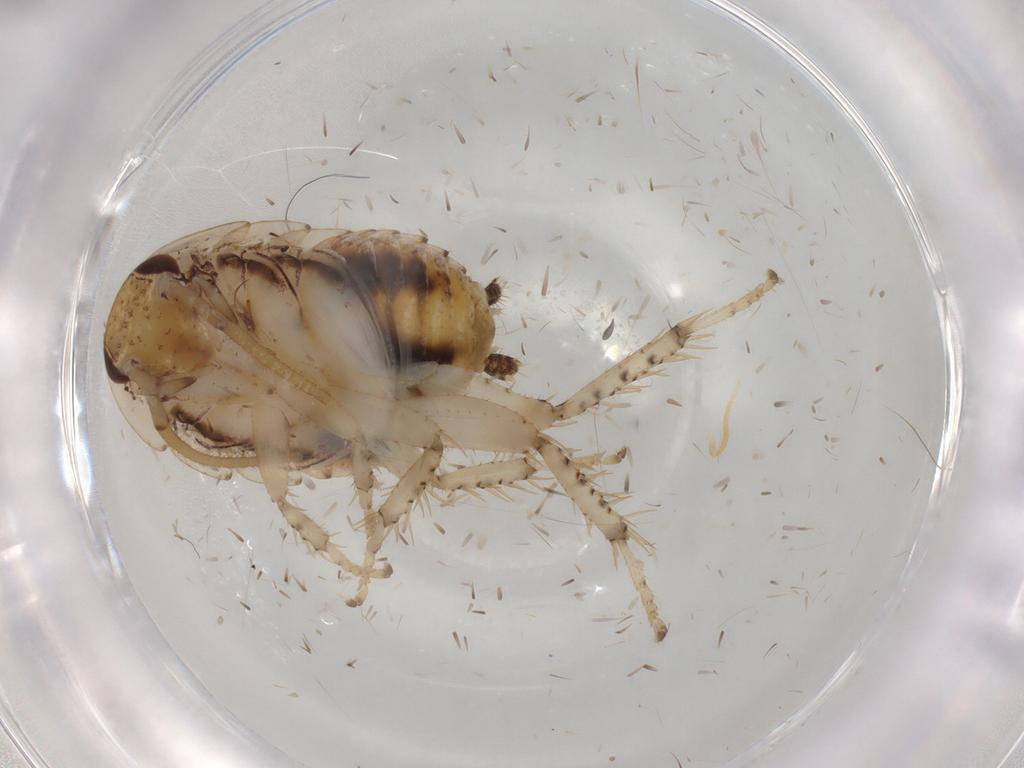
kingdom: Animalia
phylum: Arthropoda
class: Insecta
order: Blattodea
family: Blaberidae
